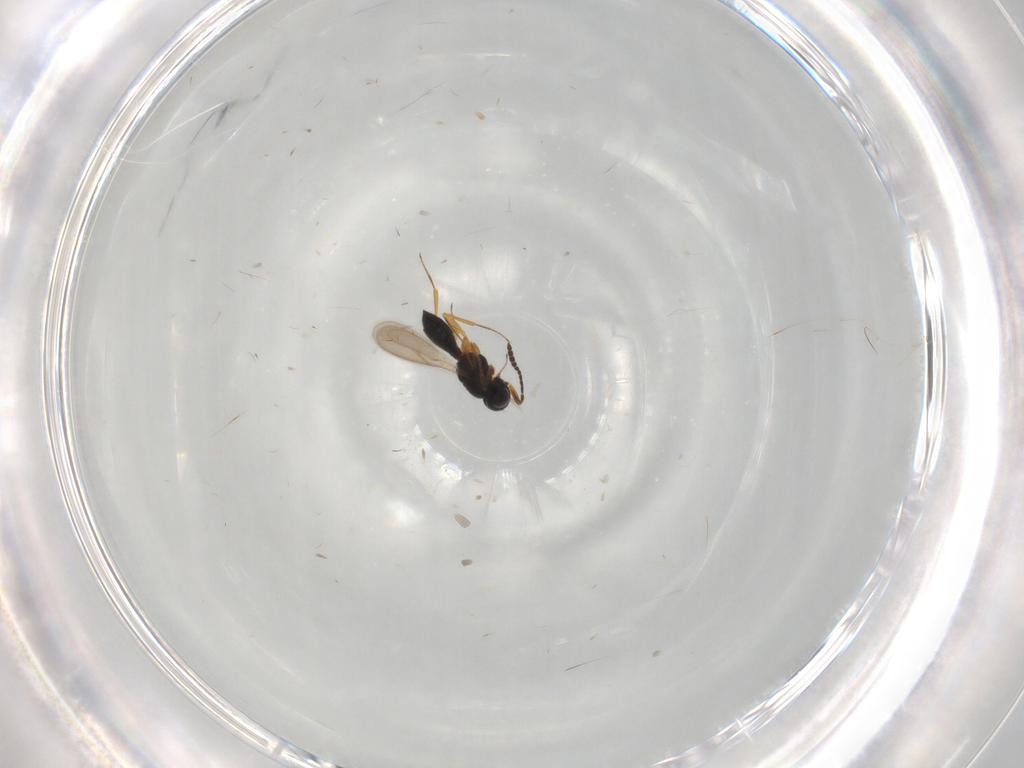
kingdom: Animalia
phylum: Arthropoda
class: Insecta
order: Hymenoptera
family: Scelionidae
